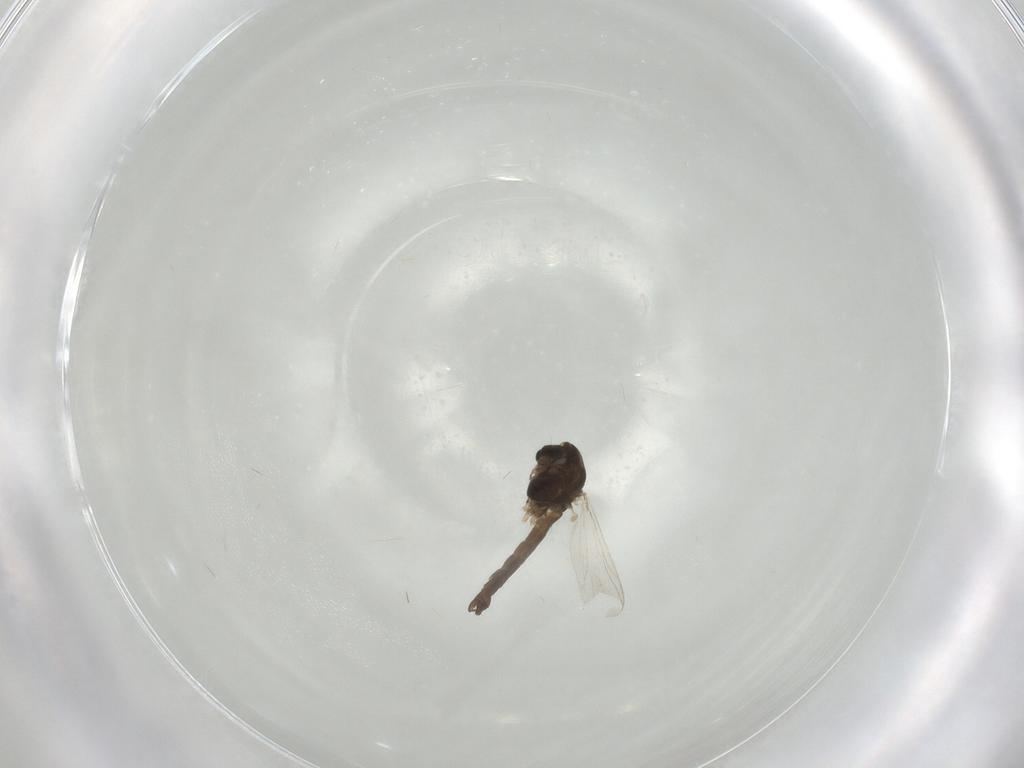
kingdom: Animalia
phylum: Arthropoda
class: Insecta
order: Diptera
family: Chironomidae
